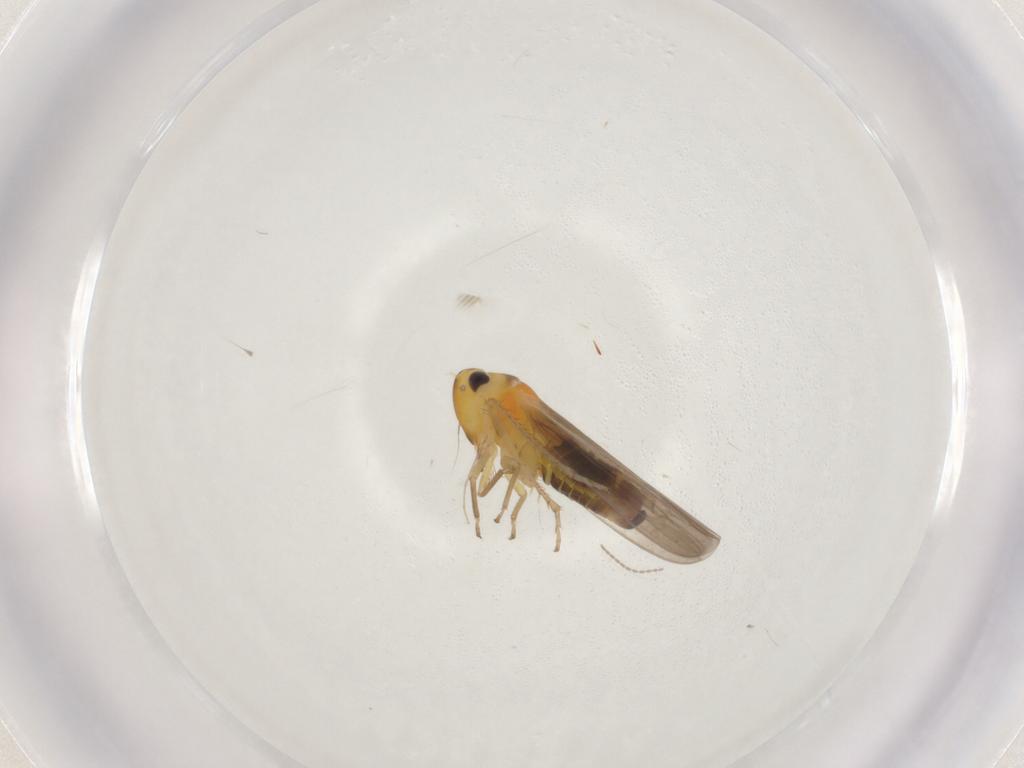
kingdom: Animalia
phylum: Arthropoda
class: Insecta
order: Hemiptera
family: Cicadellidae
